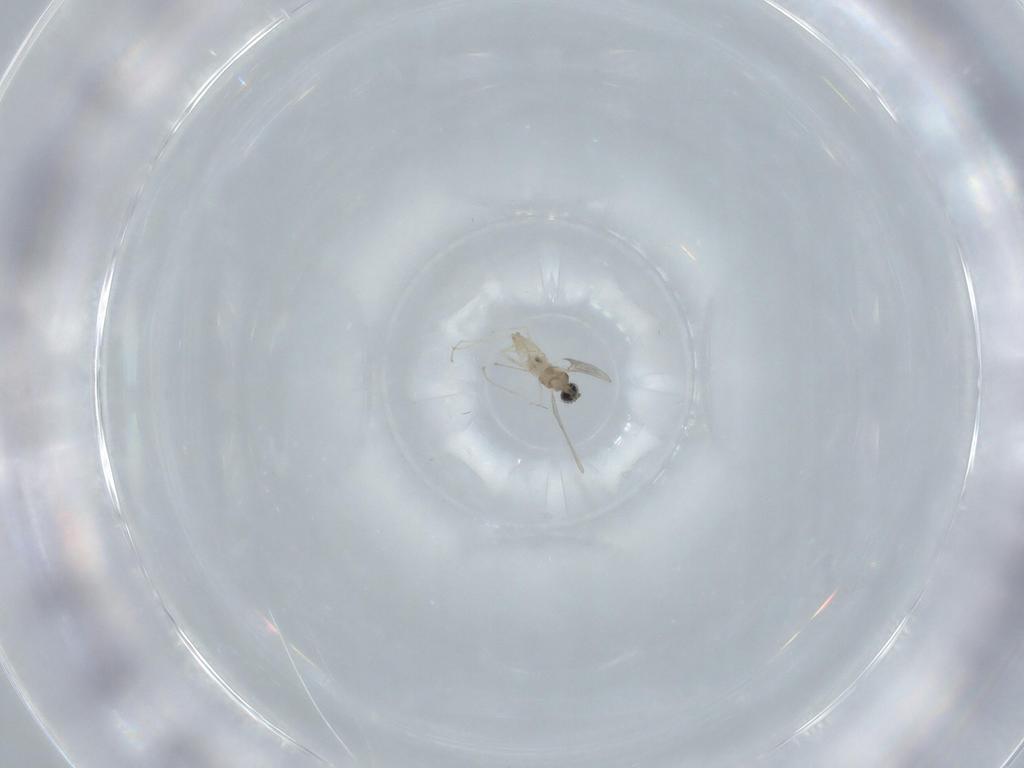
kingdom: Animalia
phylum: Arthropoda
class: Insecta
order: Diptera
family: Cecidomyiidae
